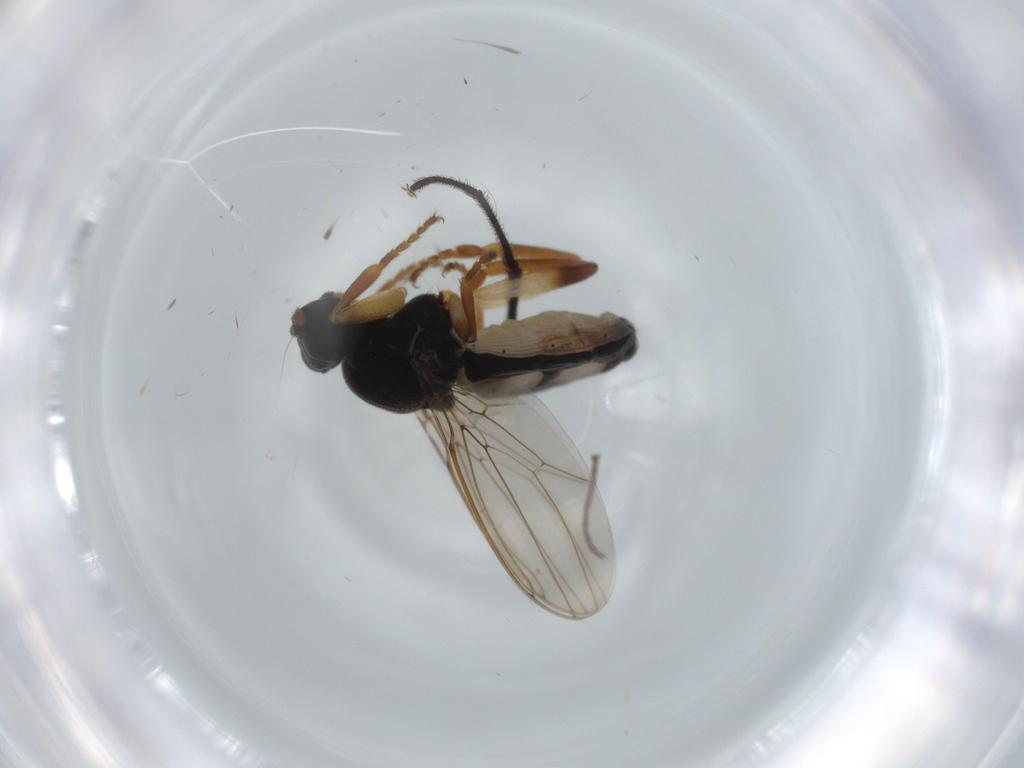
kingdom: Animalia
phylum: Arthropoda
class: Insecta
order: Diptera
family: Sphaeroceridae
